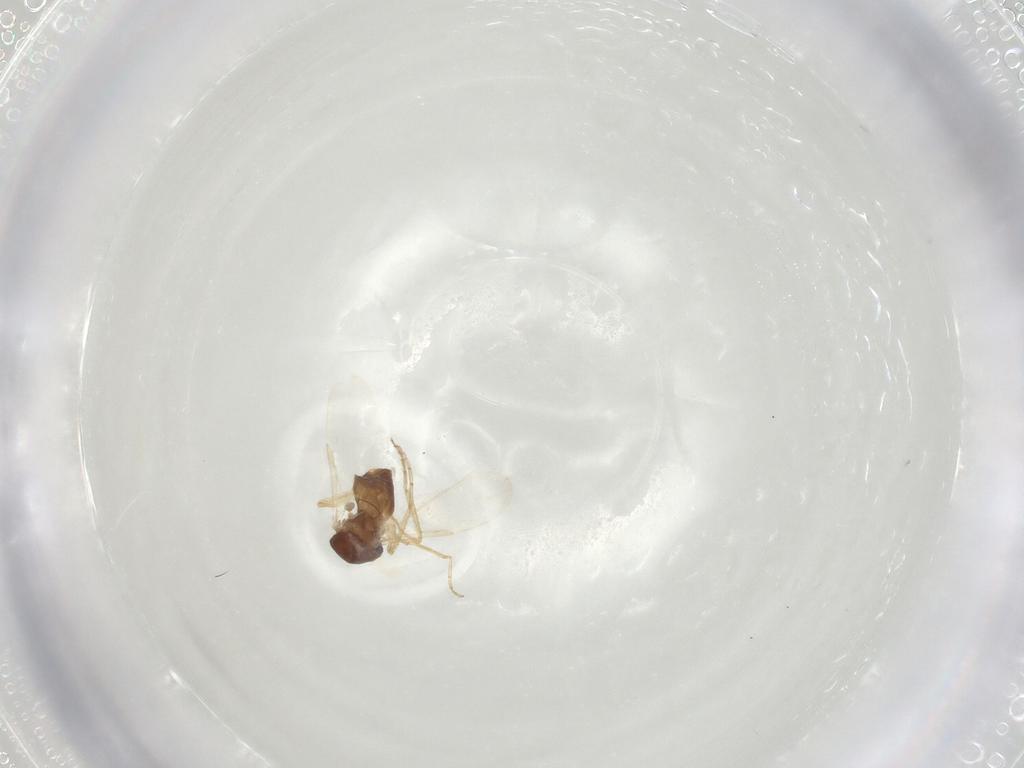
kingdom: Animalia
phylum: Arthropoda
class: Insecta
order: Diptera
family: Ceratopogonidae
